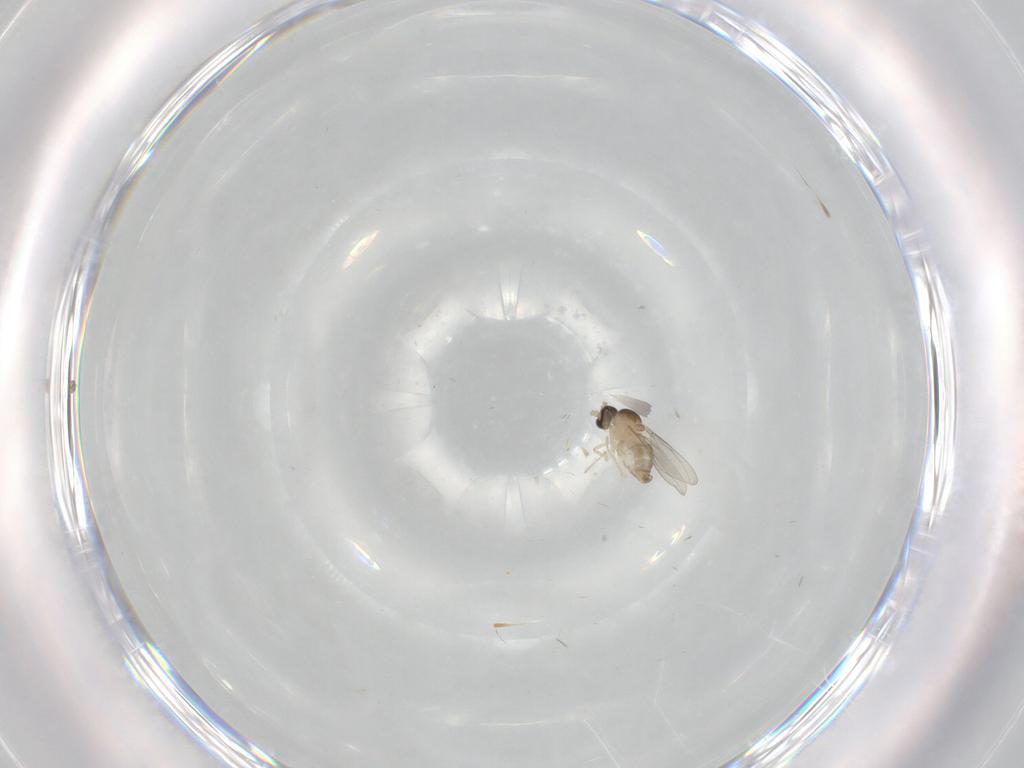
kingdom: Animalia
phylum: Arthropoda
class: Insecta
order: Diptera
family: Cecidomyiidae
